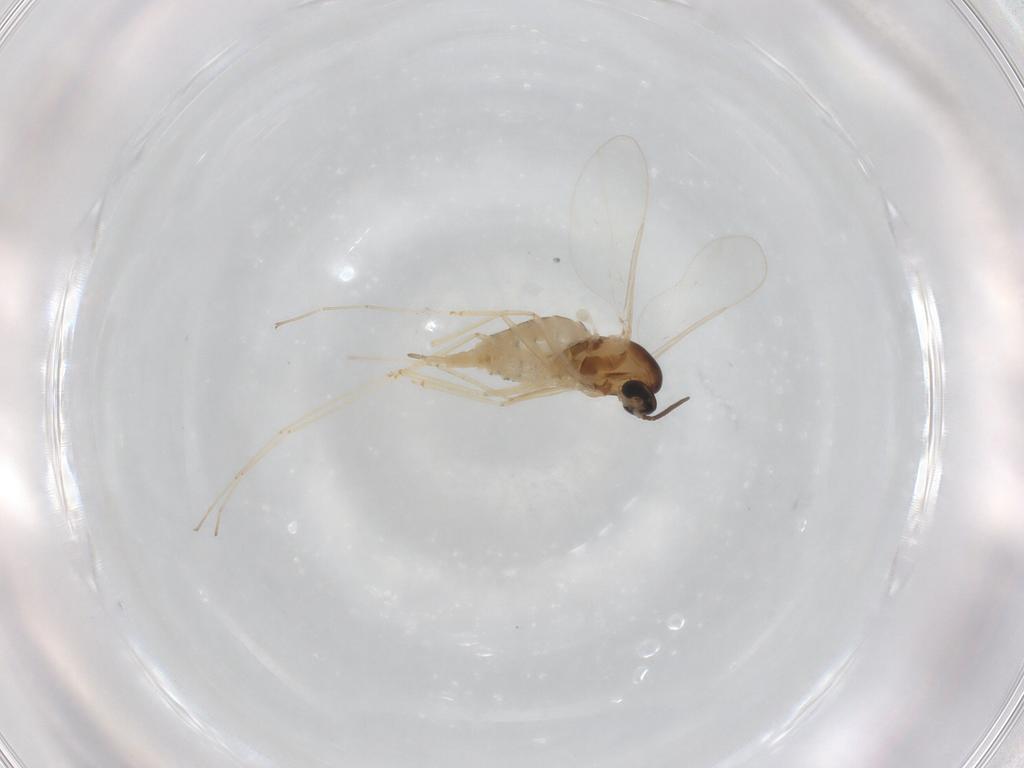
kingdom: Animalia
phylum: Arthropoda
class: Insecta
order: Diptera
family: Cecidomyiidae
